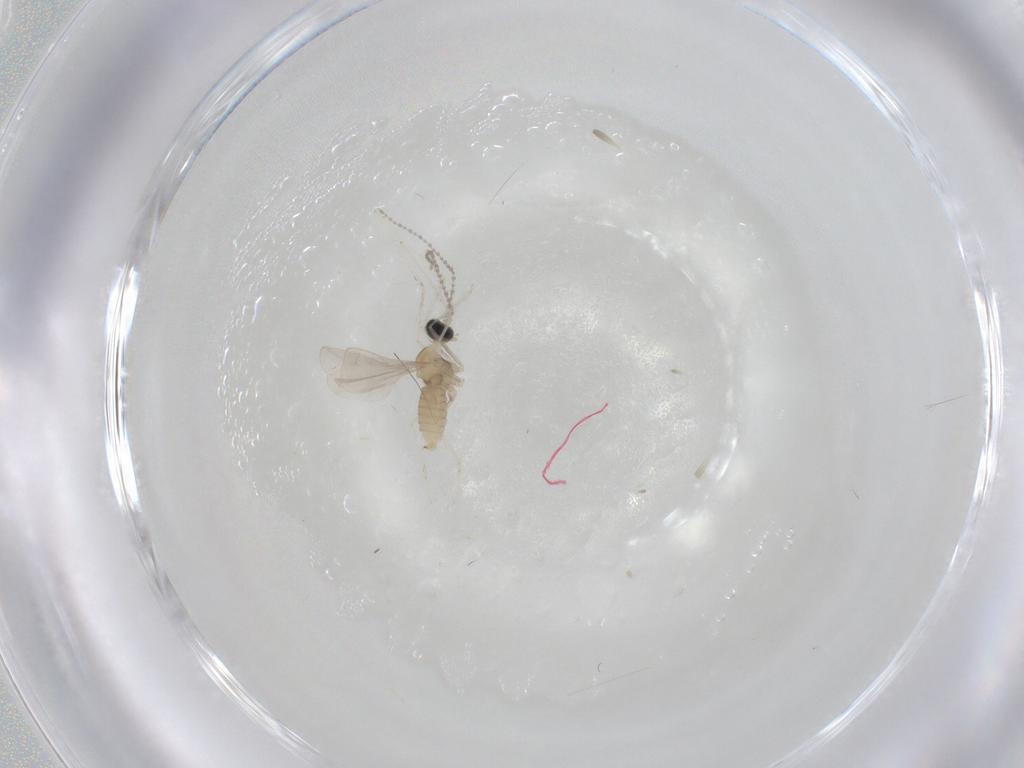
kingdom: Animalia
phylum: Arthropoda
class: Insecta
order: Diptera
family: Cecidomyiidae
